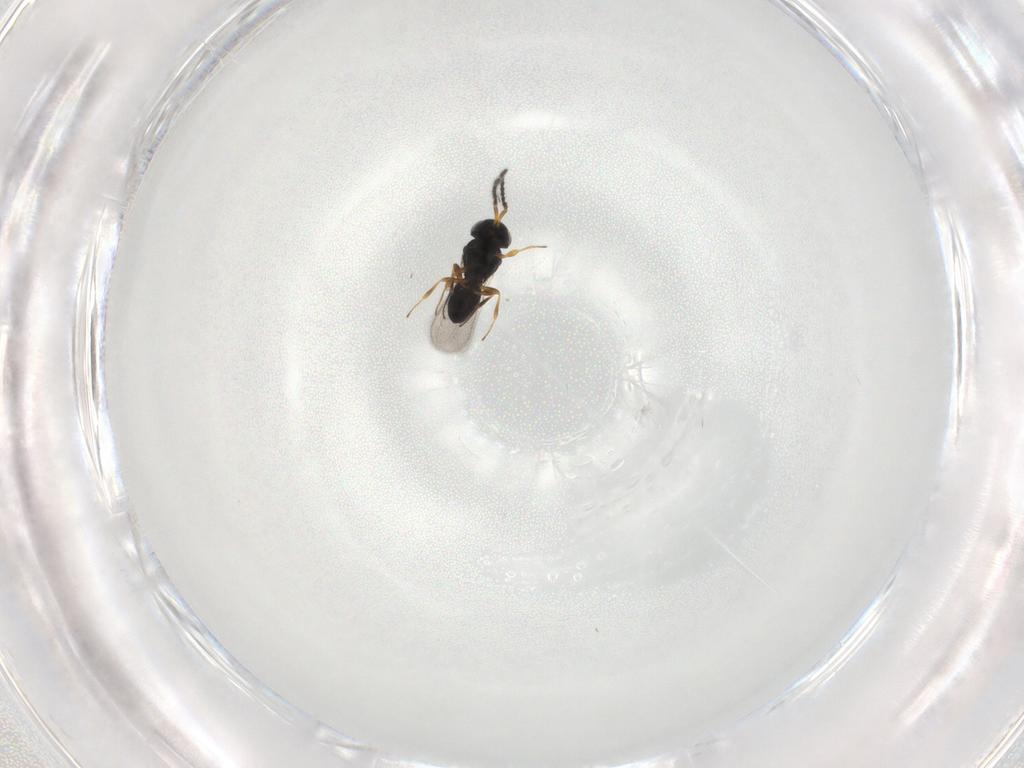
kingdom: Animalia
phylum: Arthropoda
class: Insecta
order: Hymenoptera
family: Scelionidae
